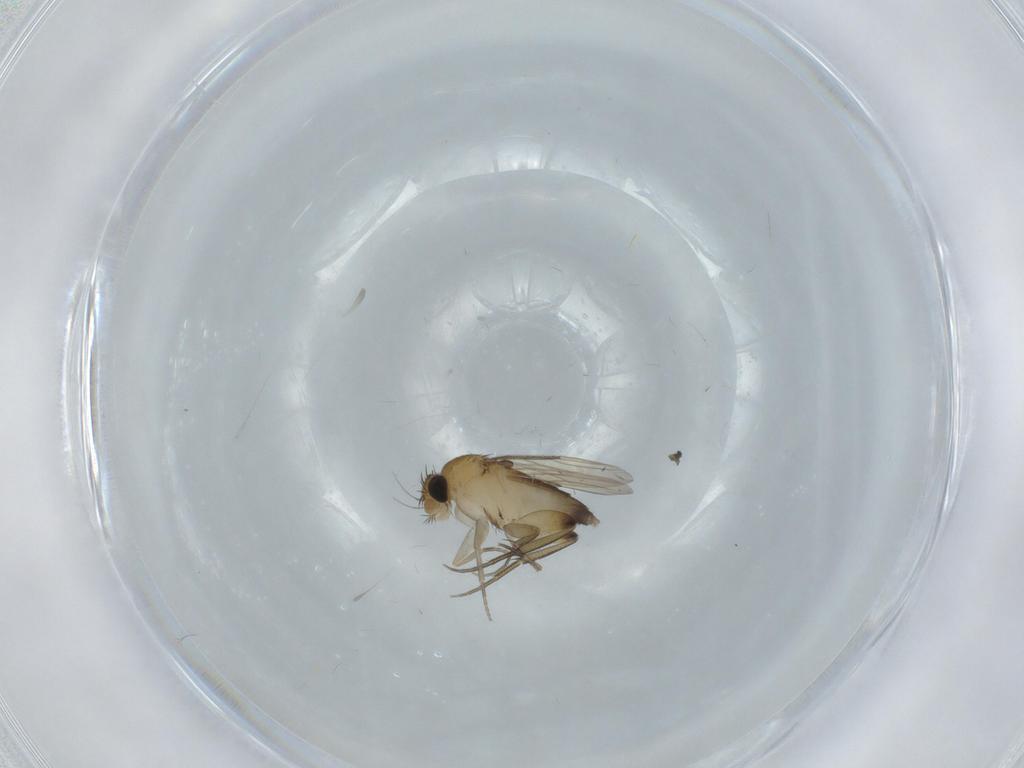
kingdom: Animalia
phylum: Arthropoda
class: Insecta
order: Diptera
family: Phoridae
